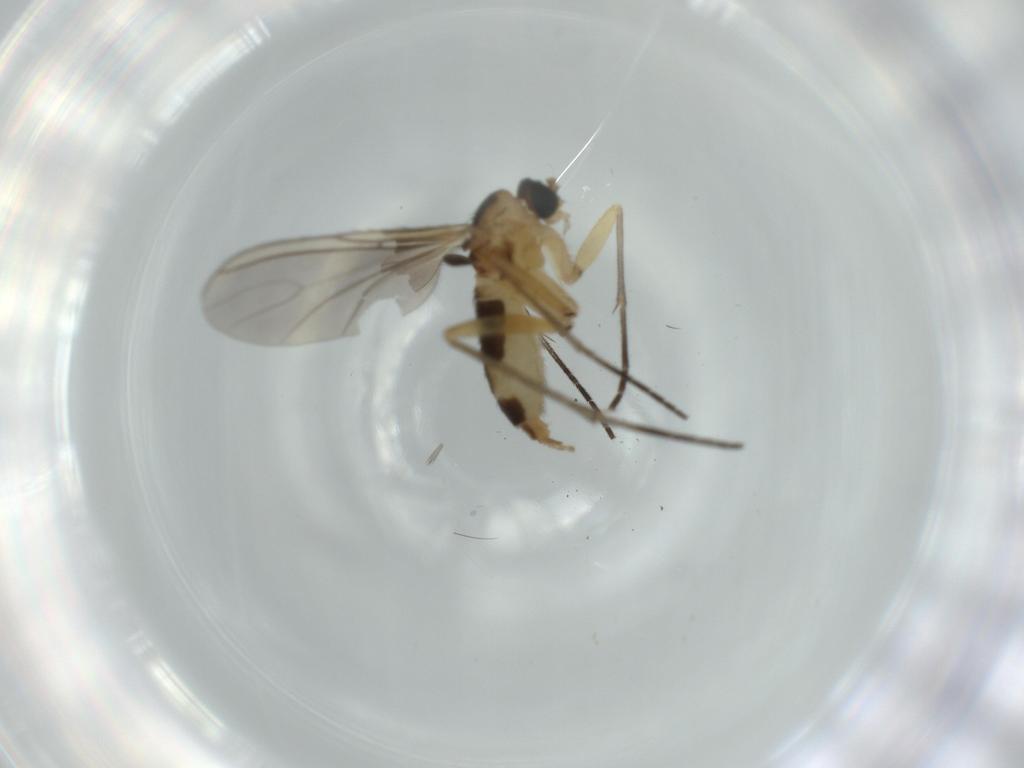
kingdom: Animalia
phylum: Arthropoda
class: Insecta
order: Diptera
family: Sciaridae
